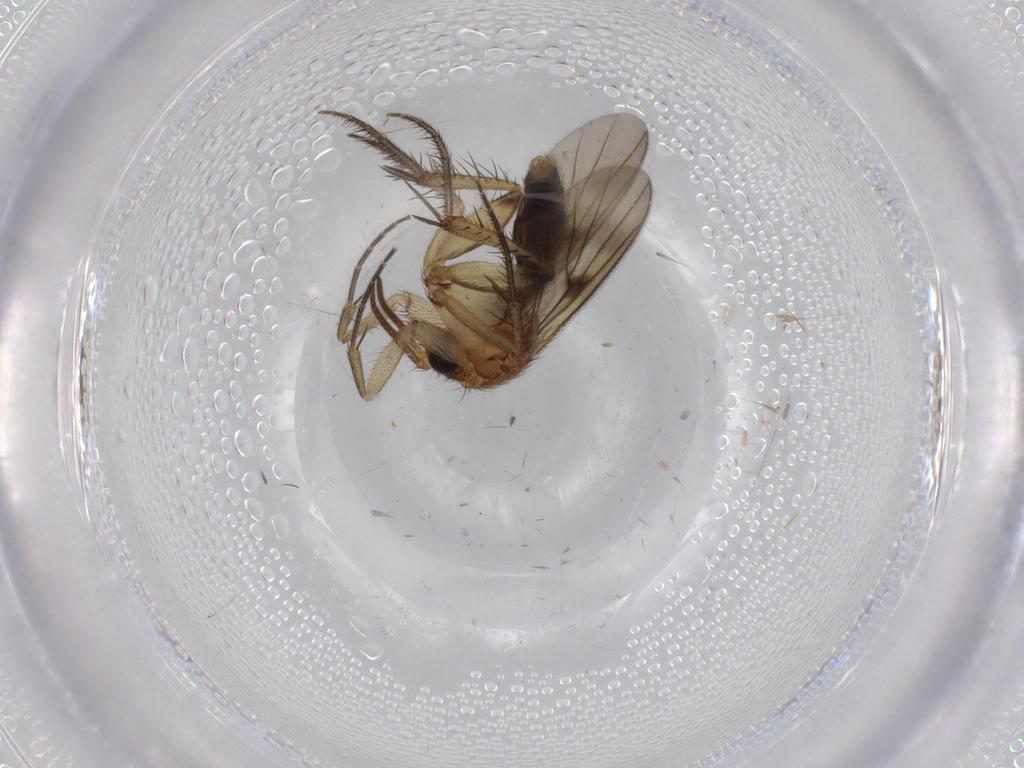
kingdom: Animalia
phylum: Arthropoda
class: Insecta
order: Diptera
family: Mycetophilidae
